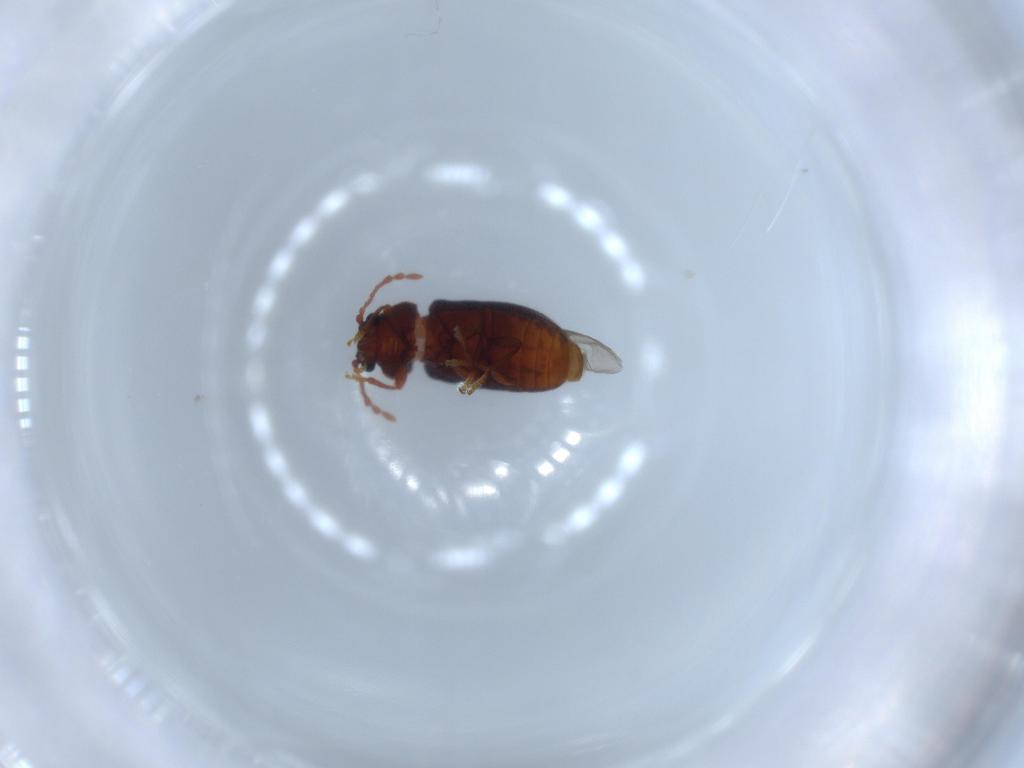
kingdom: Animalia
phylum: Arthropoda
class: Insecta
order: Coleoptera
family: Ptinidae
